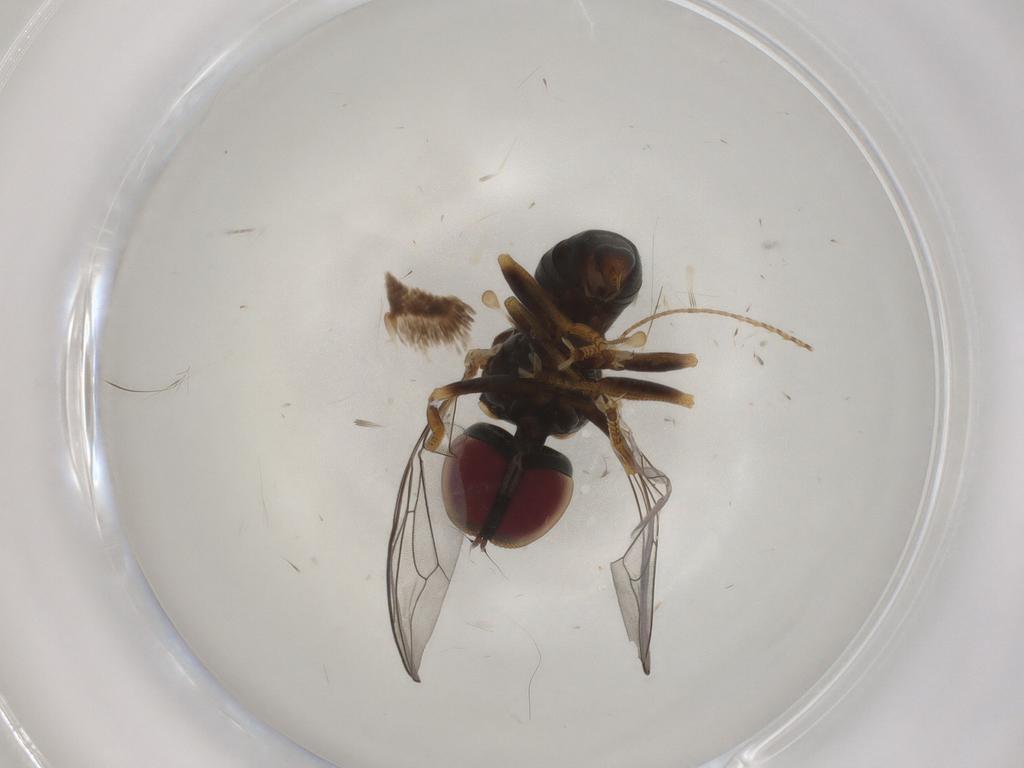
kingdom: Animalia
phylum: Arthropoda
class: Insecta
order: Diptera
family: Pipunculidae
